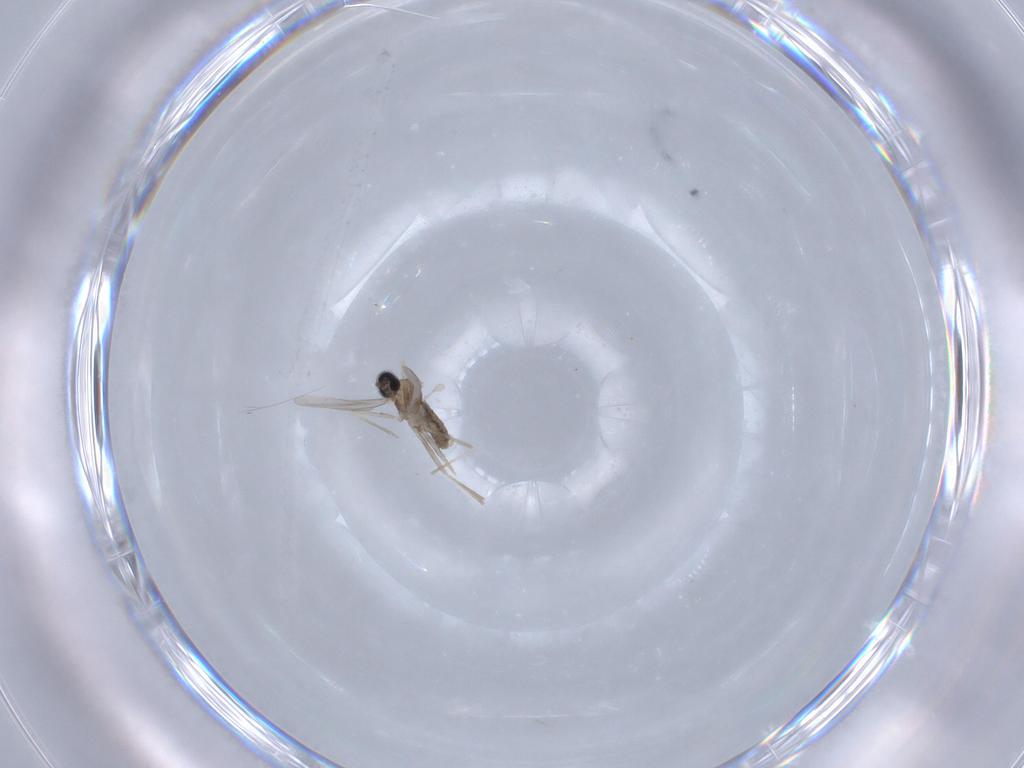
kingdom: Animalia
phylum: Arthropoda
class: Insecta
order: Diptera
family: Cecidomyiidae
